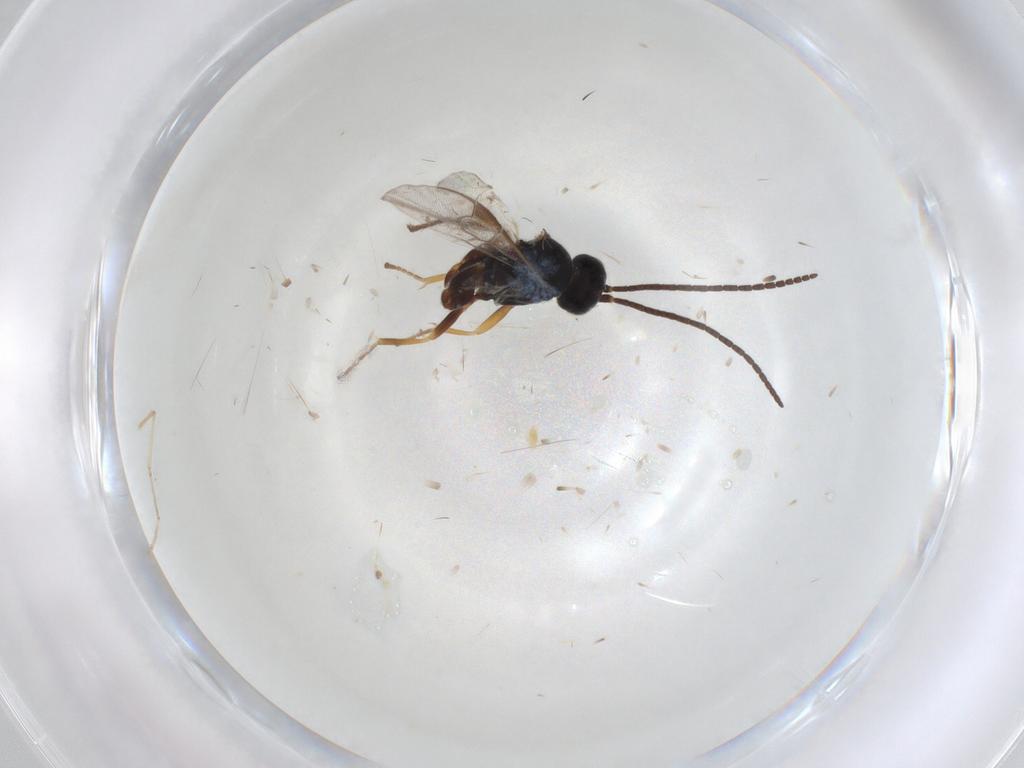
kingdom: Animalia
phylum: Arthropoda
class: Insecta
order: Hymenoptera
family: Braconidae
